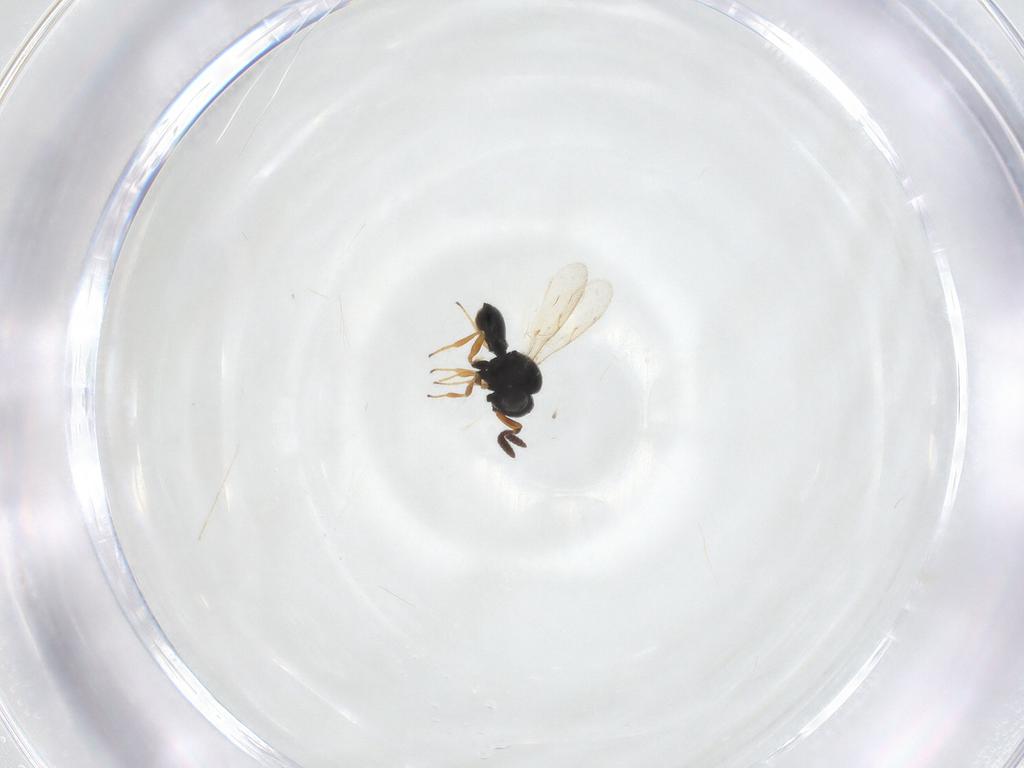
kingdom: Animalia
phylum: Arthropoda
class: Insecta
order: Hymenoptera
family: Scelionidae
